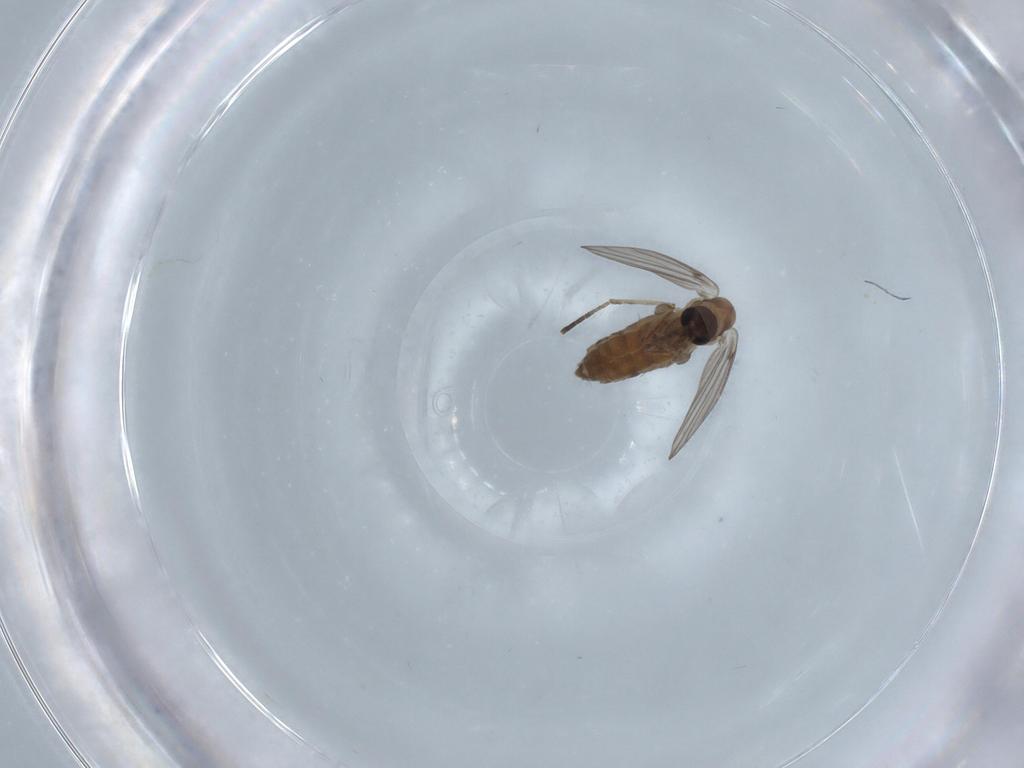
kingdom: Animalia
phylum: Arthropoda
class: Insecta
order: Diptera
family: Psychodidae
